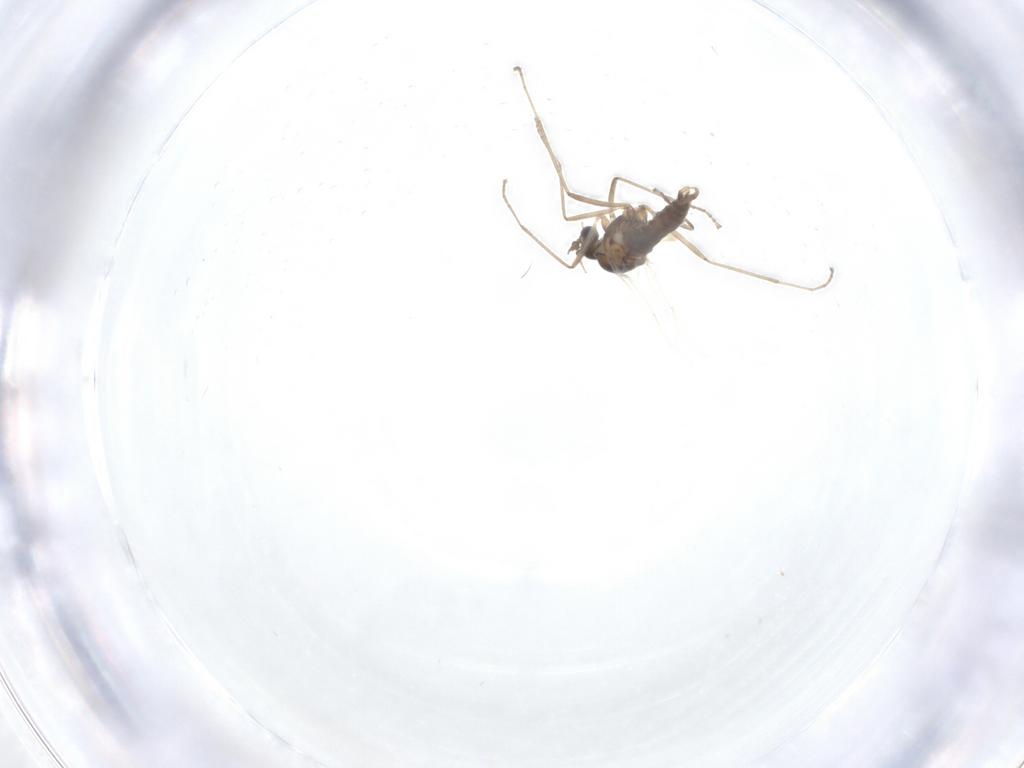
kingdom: Animalia
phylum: Arthropoda
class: Insecta
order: Diptera
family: Cecidomyiidae
